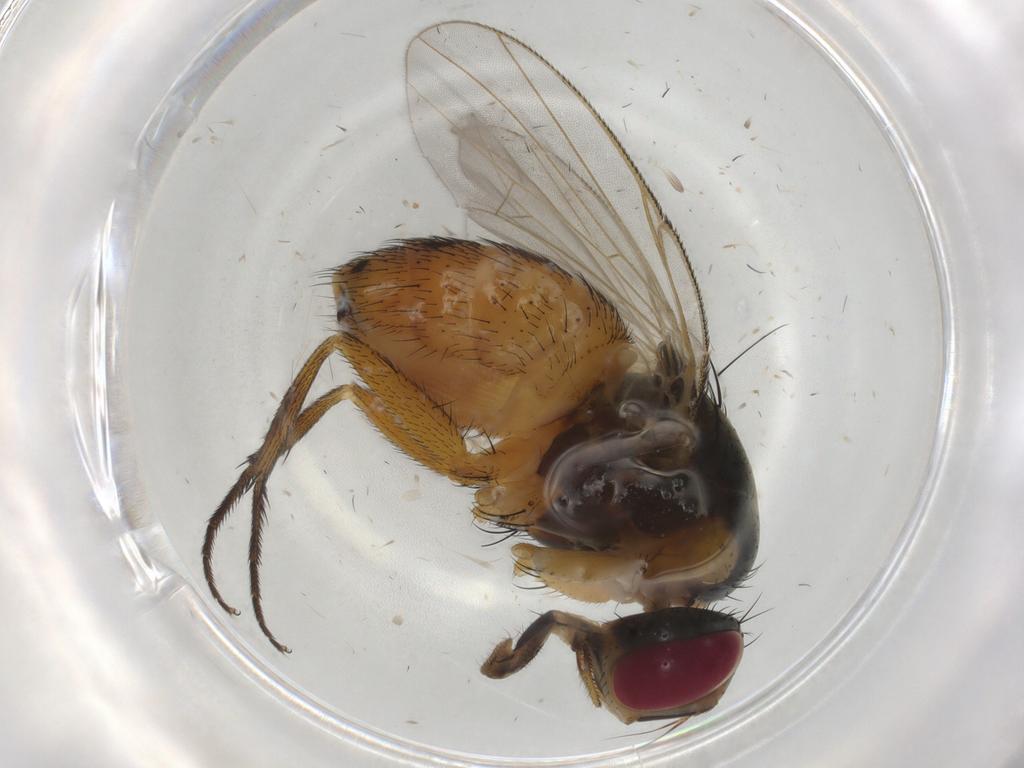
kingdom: Animalia
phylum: Arthropoda
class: Insecta
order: Diptera
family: Muscidae
